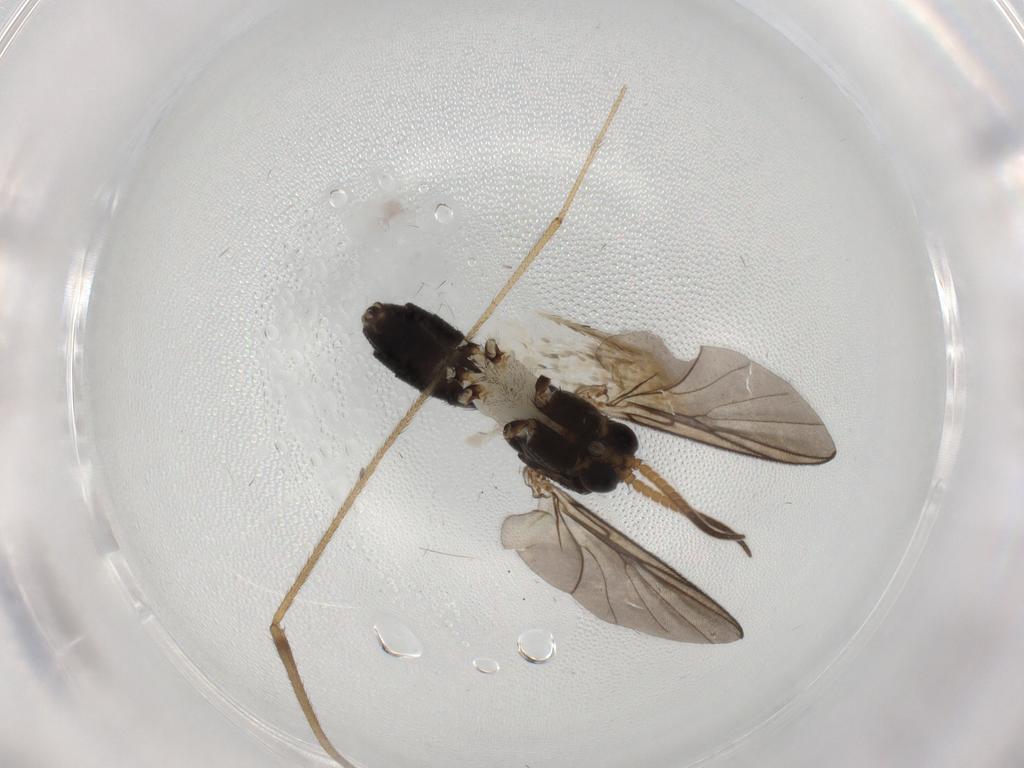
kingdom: Animalia
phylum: Arthropoda
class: Insecta
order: Diptera
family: Limoniidae
